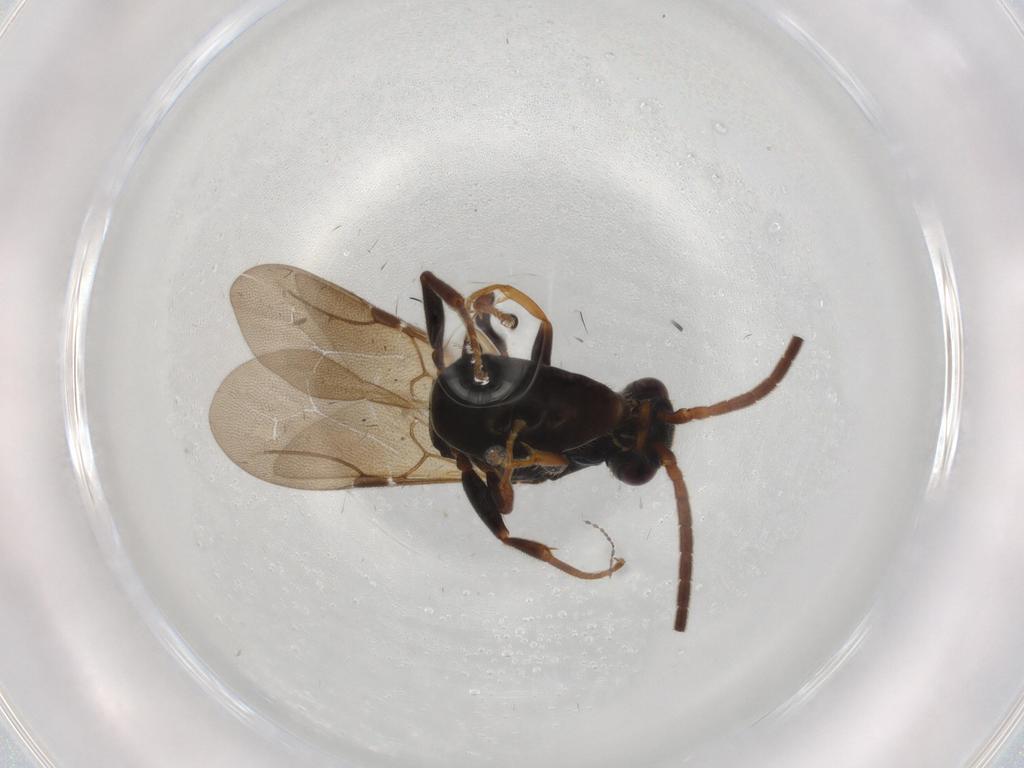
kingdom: Animalia
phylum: Arthropoda
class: Insecta
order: Hymenoptera
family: Bethylidae
